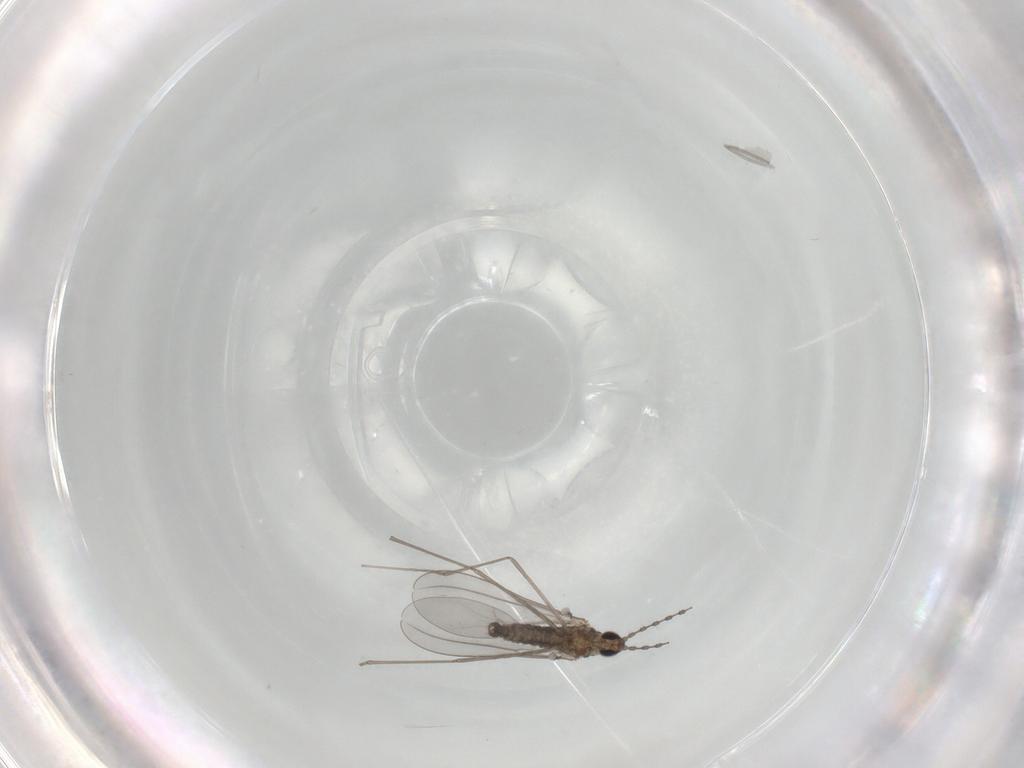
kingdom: Animalia
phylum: Arthropoda
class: Insecta
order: Diptera
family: Cecidomyiidae
